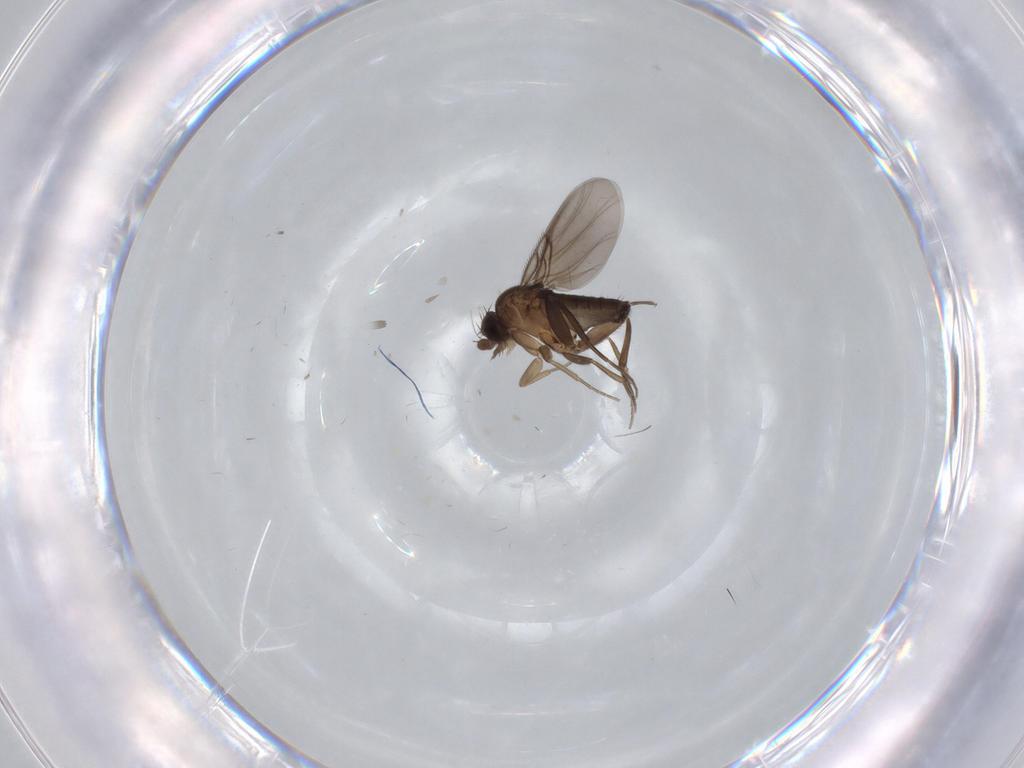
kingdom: Animalia
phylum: Arthropoda
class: Insecta
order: Diptera
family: Phoridae
